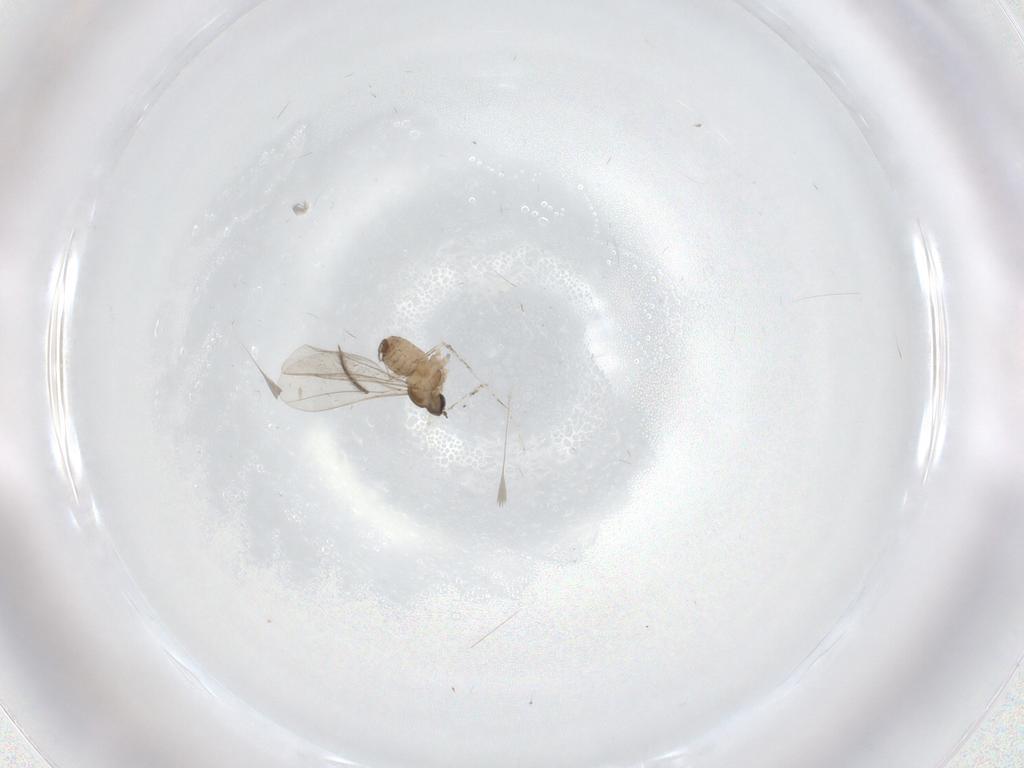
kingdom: Animalia
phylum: Arthropoda
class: Insecta
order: Diptera
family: Cecidomyiidae
